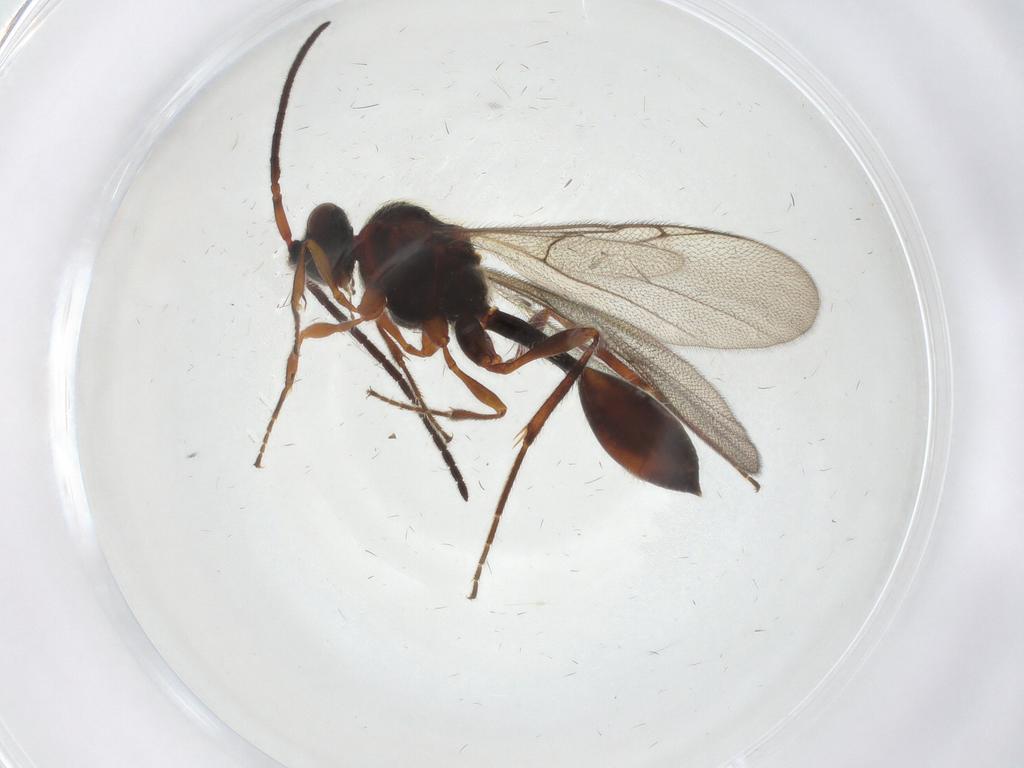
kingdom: Animalia
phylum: Arthropoda
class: Insecta
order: Hymenoptera
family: Diapriidae
